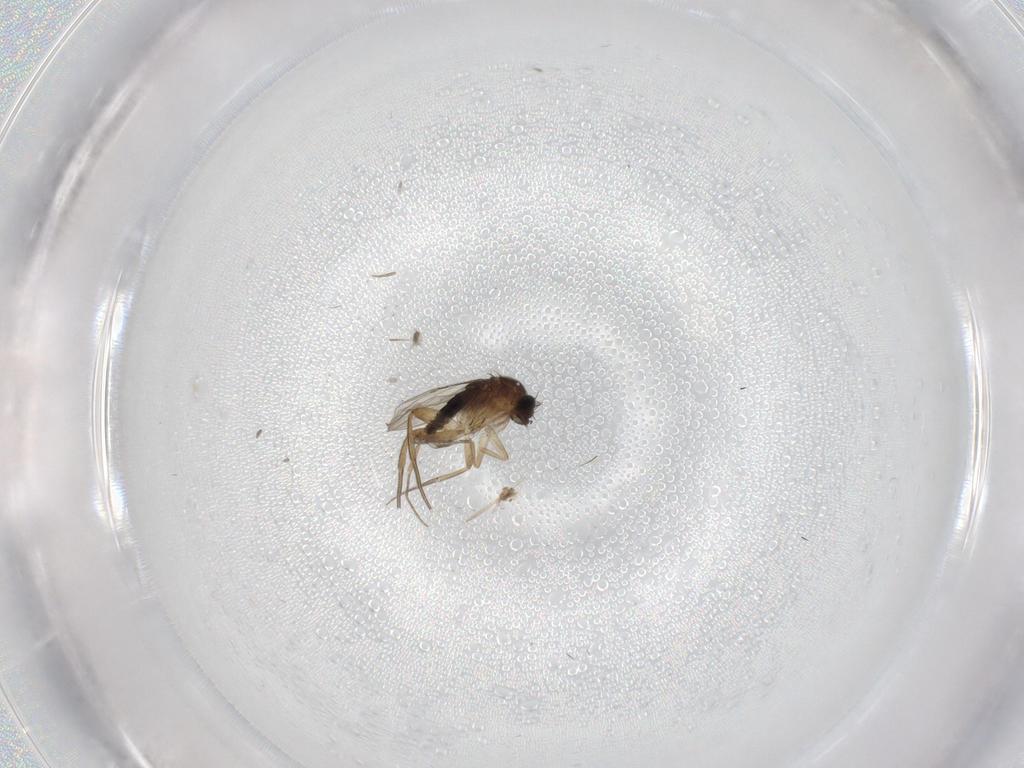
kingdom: Animalia
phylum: Arthropoda
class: Insecta
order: Diptera
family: Phoridae
